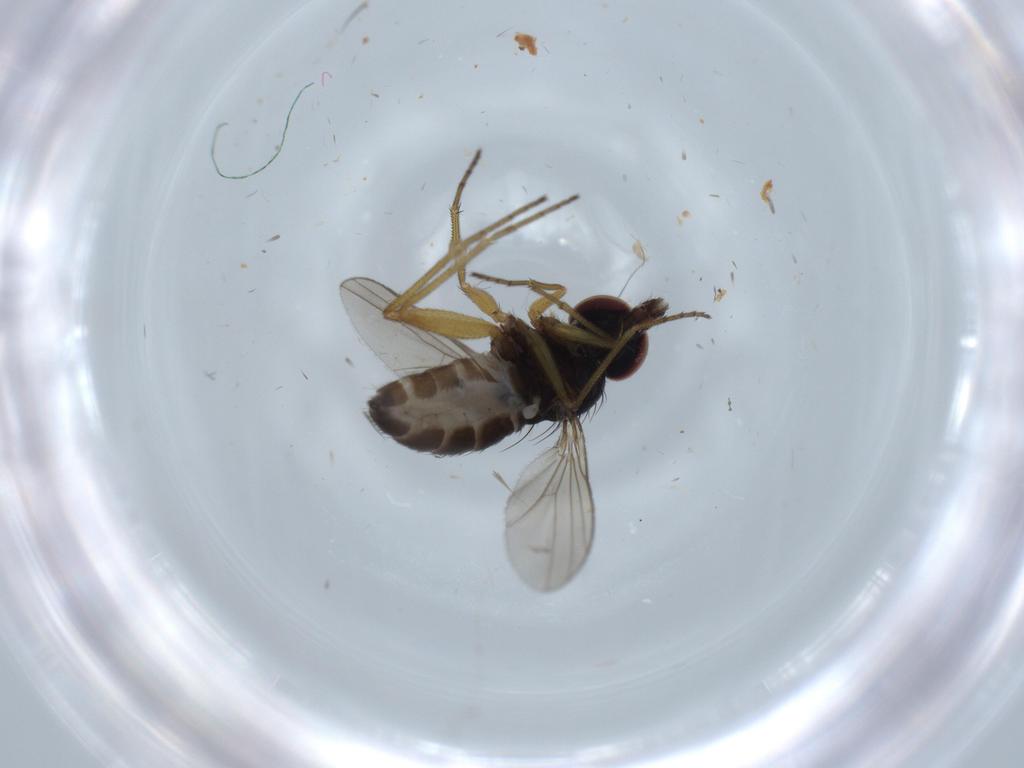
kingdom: Animalia
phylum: Arthropoda
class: Insecta
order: Diptera
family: Dolichopodidae
